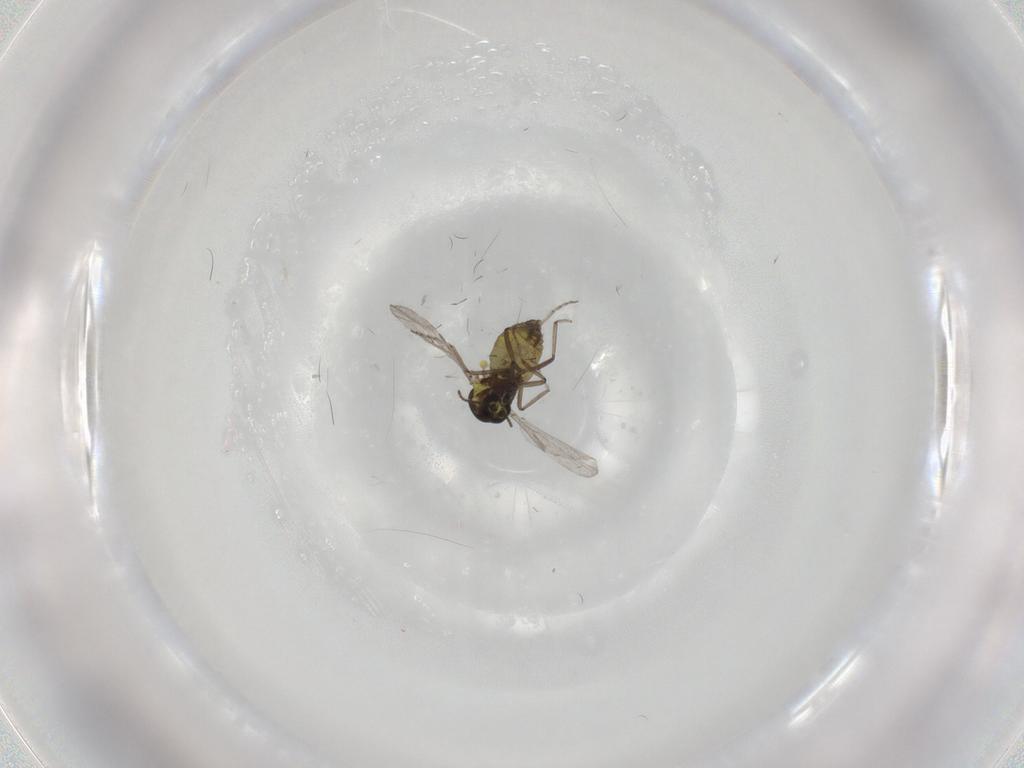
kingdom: Animalia
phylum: Arthropoda
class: Insecta
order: Diptera
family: Ceratopogonidae
